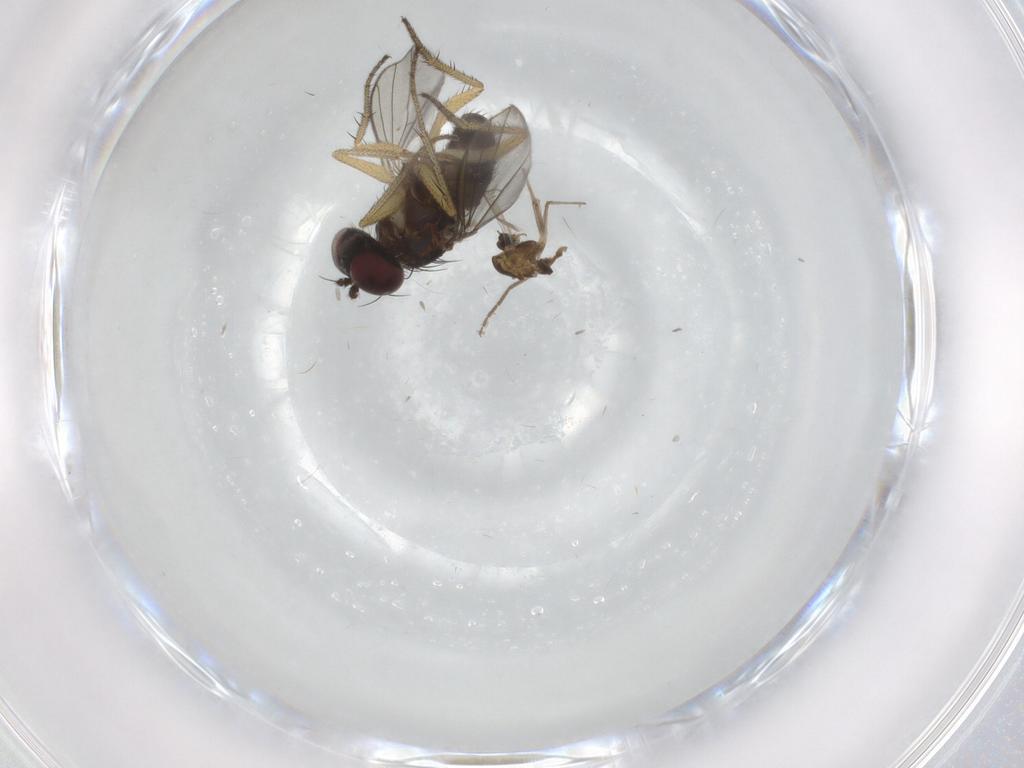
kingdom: Animalia
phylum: Arthropoda
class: Insecta
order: Diptera
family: Chironomidae
